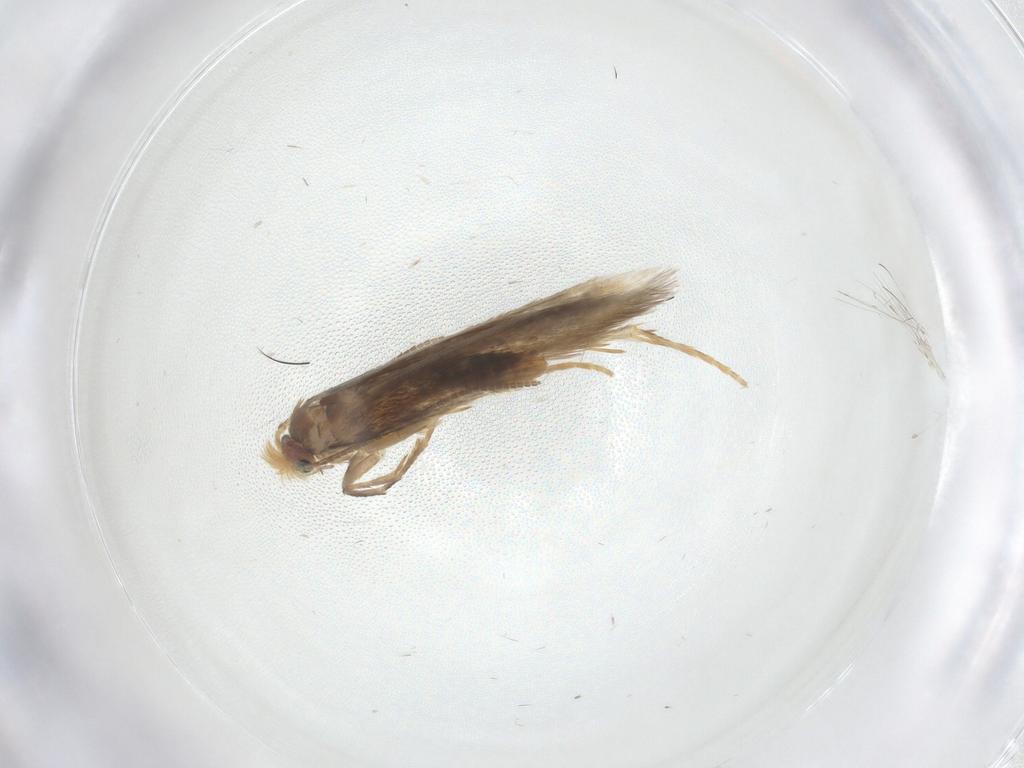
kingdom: Animalia
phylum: Arthropoda
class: Insecta
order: Lepidoptera
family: Nepticulidae
